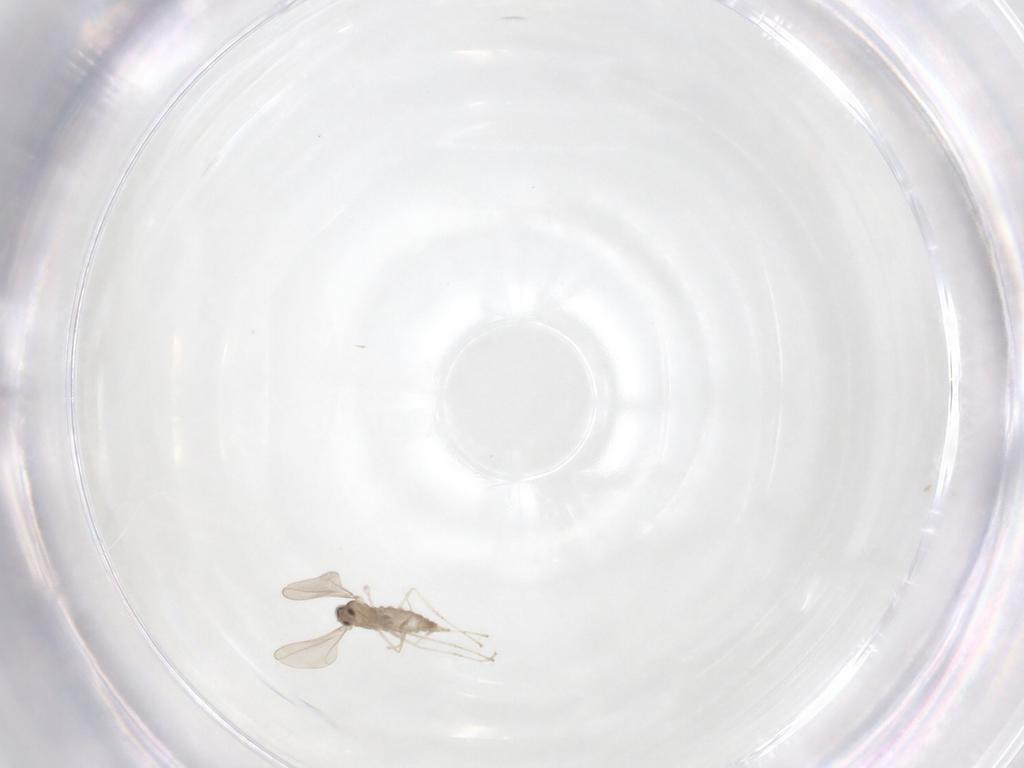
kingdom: Animalia
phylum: Arthropoda
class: Insecta
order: Diptera
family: Cecidomyiidae
